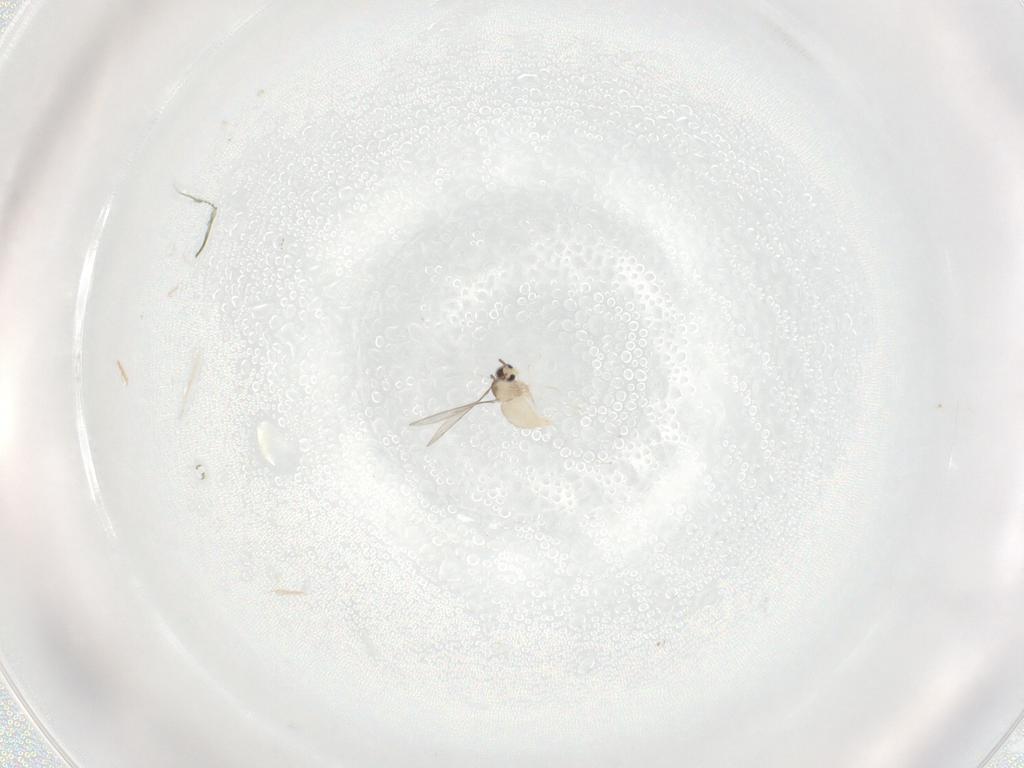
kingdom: Animalia
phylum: Arthropoda
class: Insecta
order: Diptera
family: Cecidomyiidae
